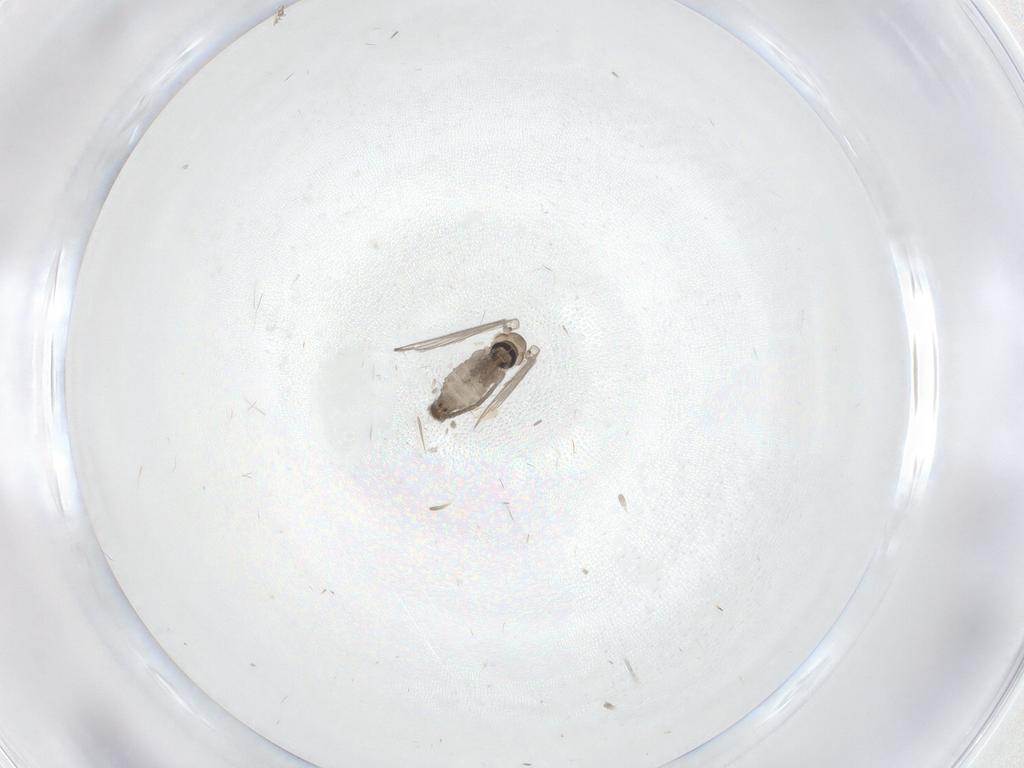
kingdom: Animalia
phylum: Arthropoda
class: Insecta
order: Diptera
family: Psychodidae
